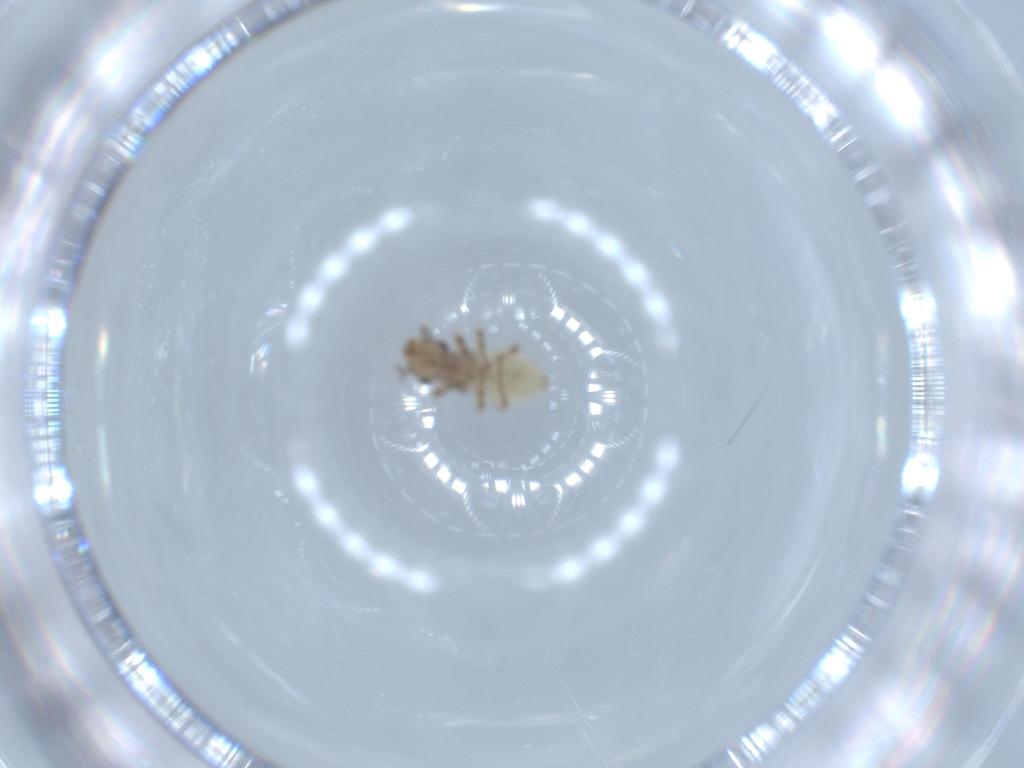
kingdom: Animalia
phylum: Arthropoda
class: Insecta
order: Psocodea
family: Lepidopsocidae
